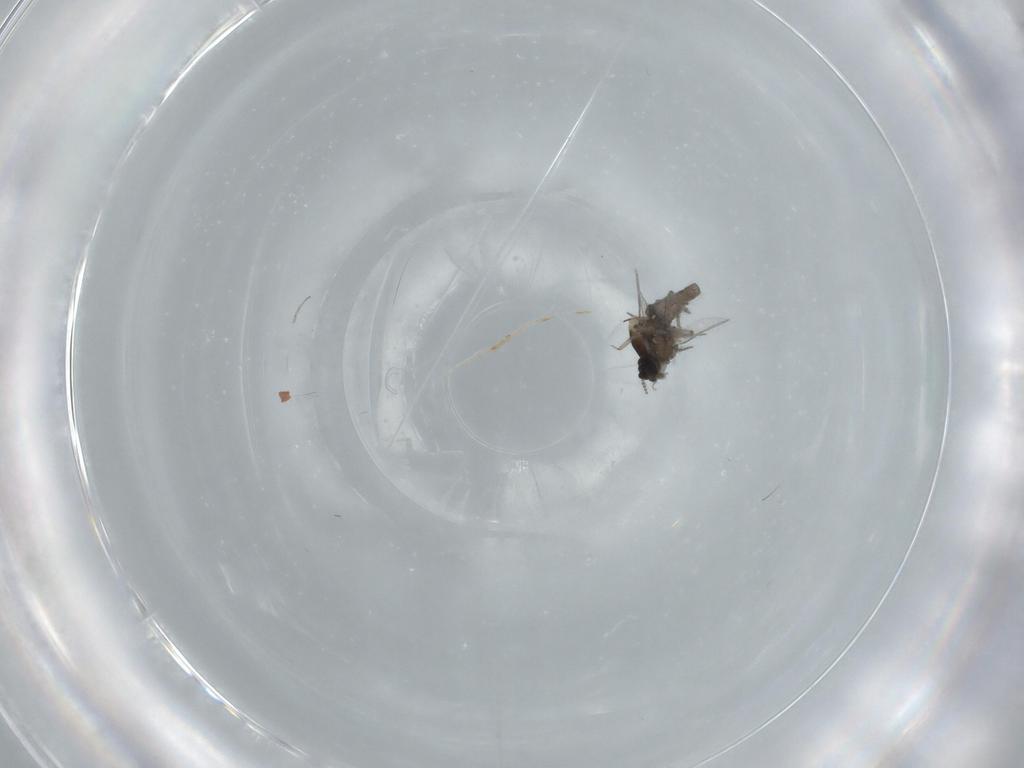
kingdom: Animalia
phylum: Arthropoda
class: Insecta
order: Diptera
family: Ceratopogonidae
